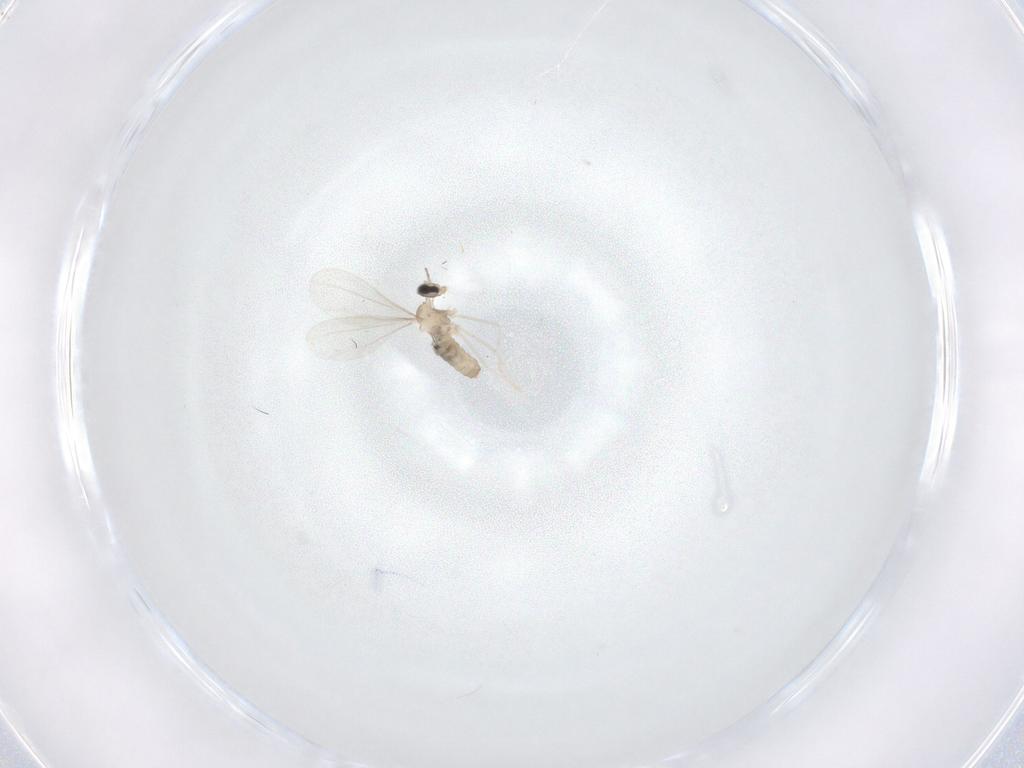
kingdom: Animalia
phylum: Arthropoda
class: Insecta
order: Diptera
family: Cecidomyiidae
